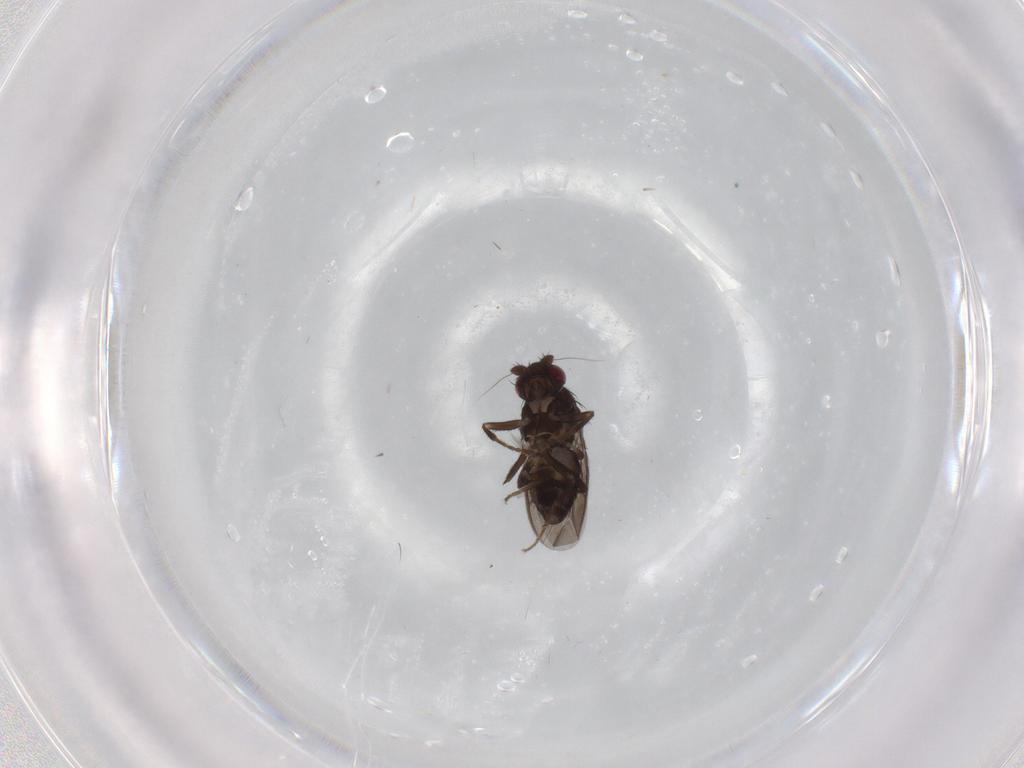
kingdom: Animalia
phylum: Arthropoda
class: Insecta
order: Diptera
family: Sphaeroceridae
